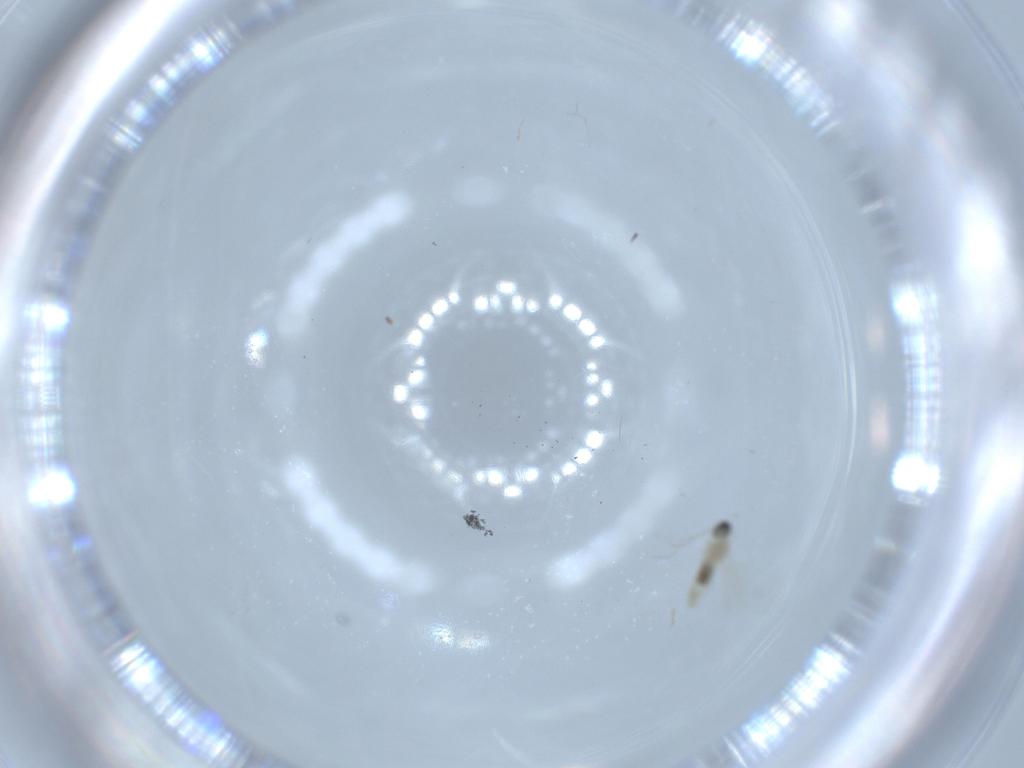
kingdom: Animalia
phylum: Arthropoda
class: Insecta
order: Diptera
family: Cecidomyiidae
